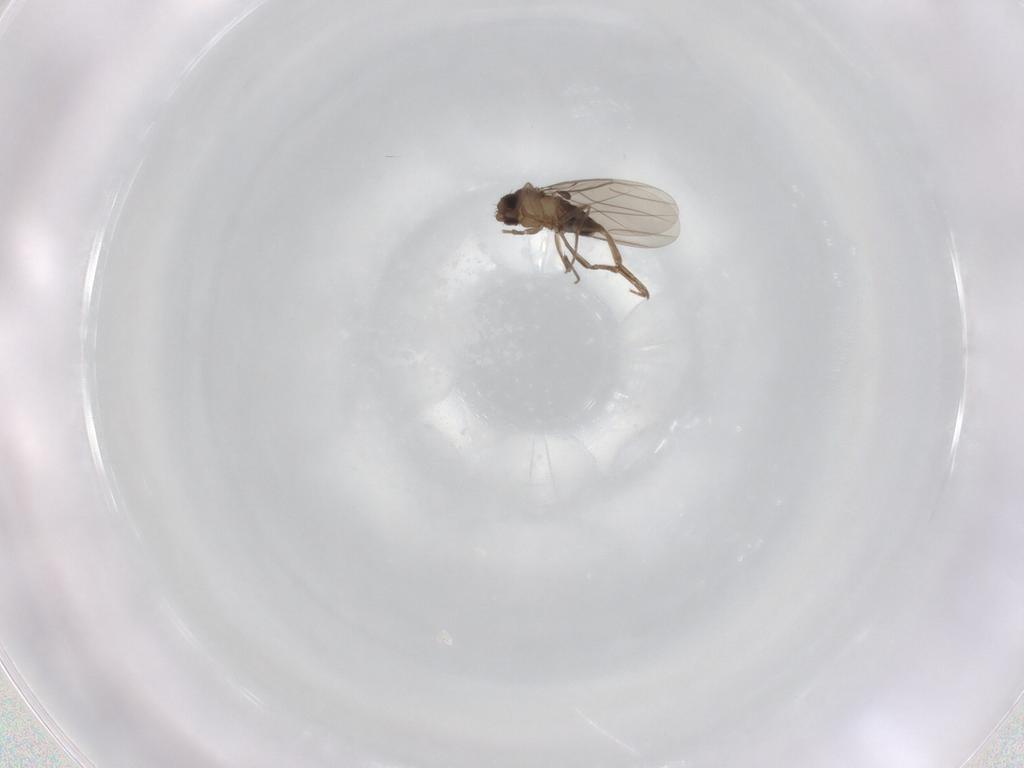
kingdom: Animalia
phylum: Arthropoda
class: Insecta
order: Diptera
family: Phoridae
